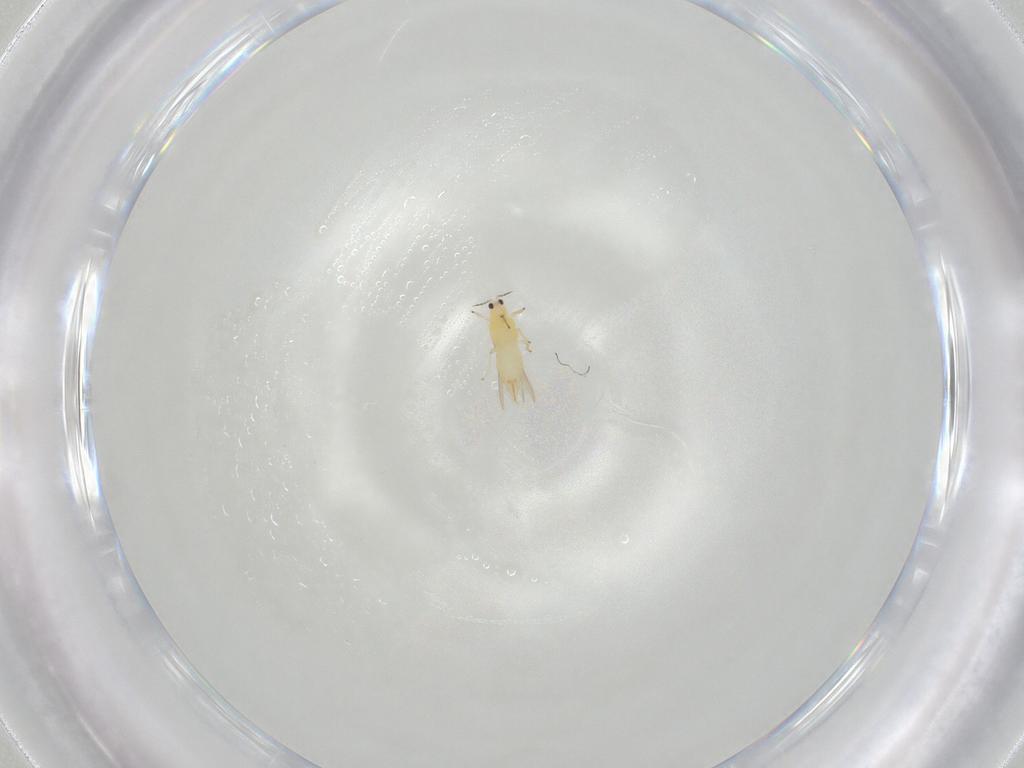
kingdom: Animalia
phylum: Arthropoda
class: Insecta
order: Thysanoptera
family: Thripidae
